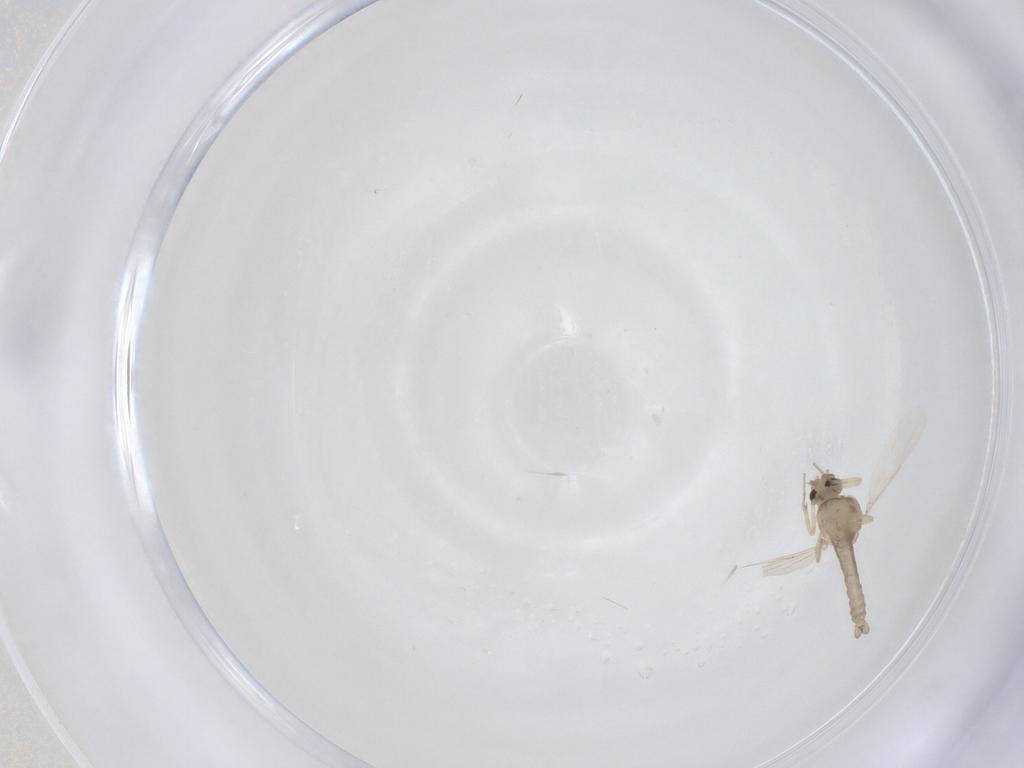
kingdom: Animalia
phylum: Arthropoda
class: Insecta
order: Diptera
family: Ceratopogonidae
